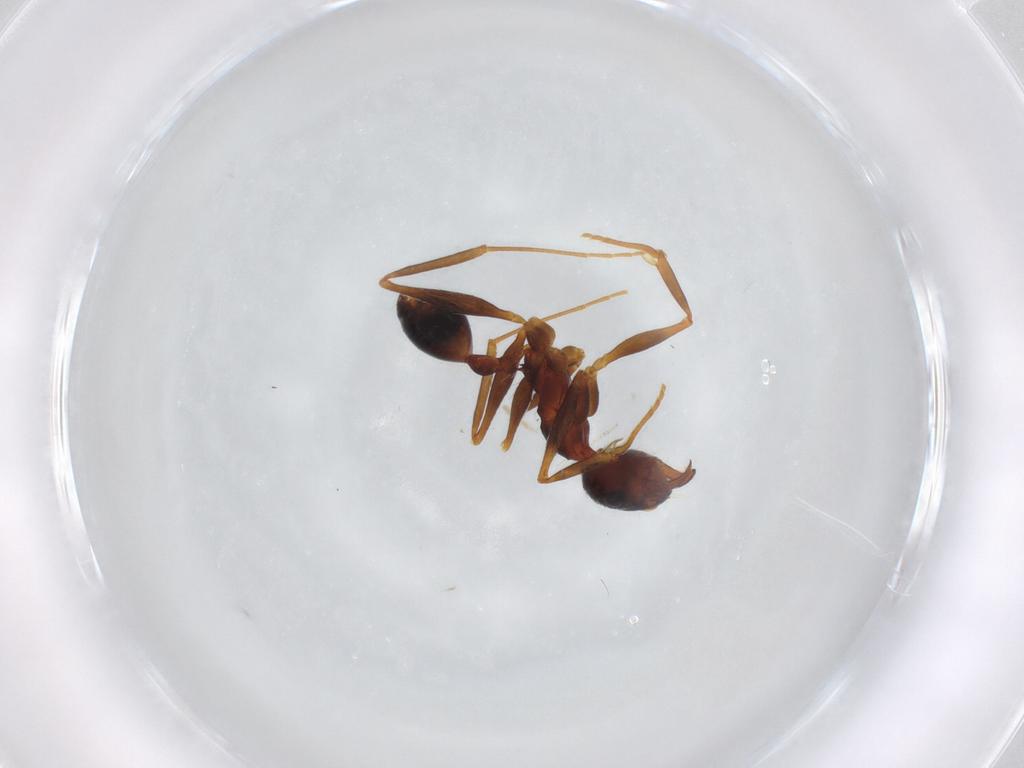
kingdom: Animalia
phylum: Arthropoda
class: Insecta
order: Hymenoptera
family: Formicidae
